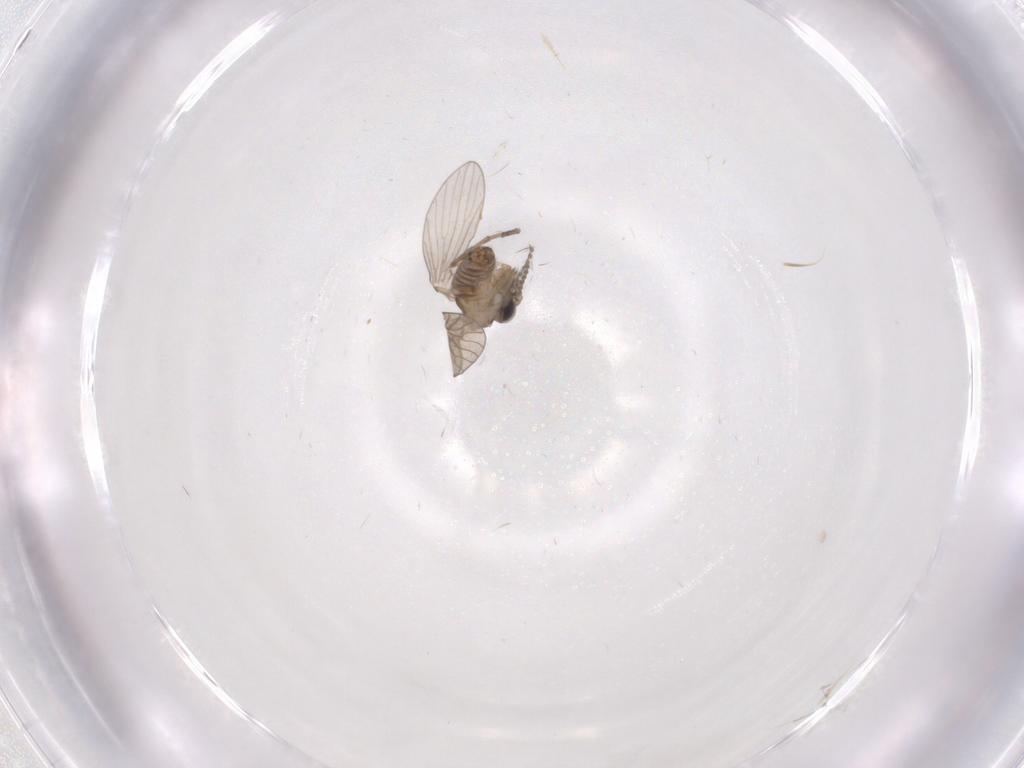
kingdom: Animalia
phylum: Arthropoda
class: Insecta
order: Diptera
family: Psychodidae
